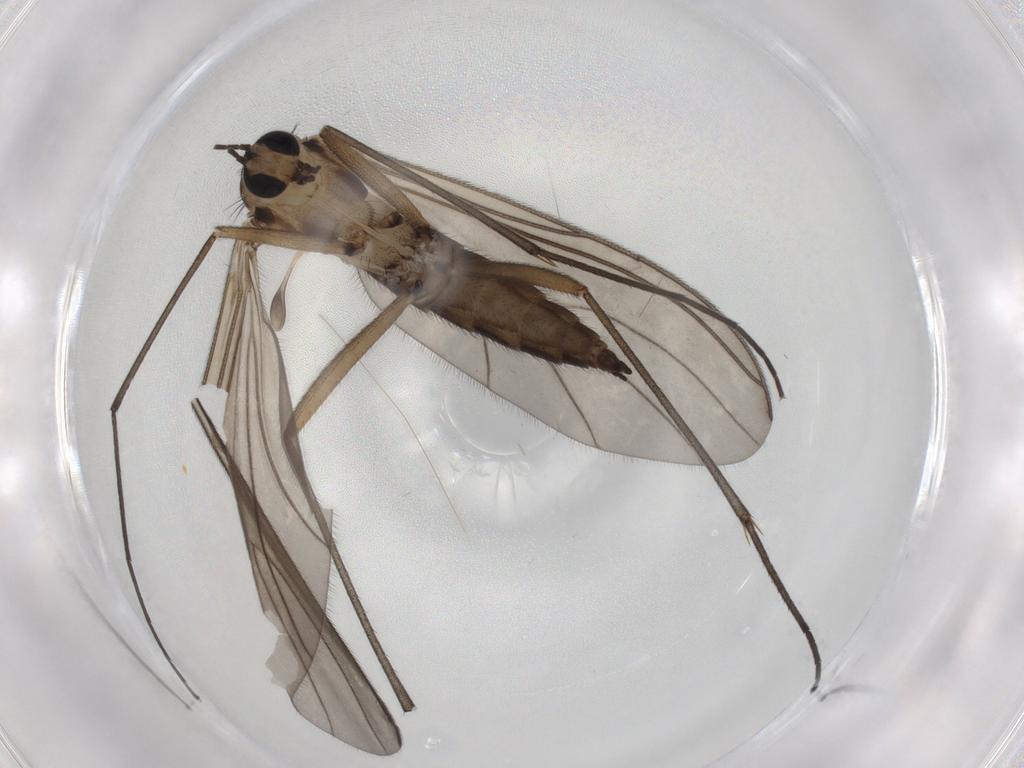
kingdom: Animalia
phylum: Arthropoda
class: Insecta
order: Diptera
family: Sciaridae
